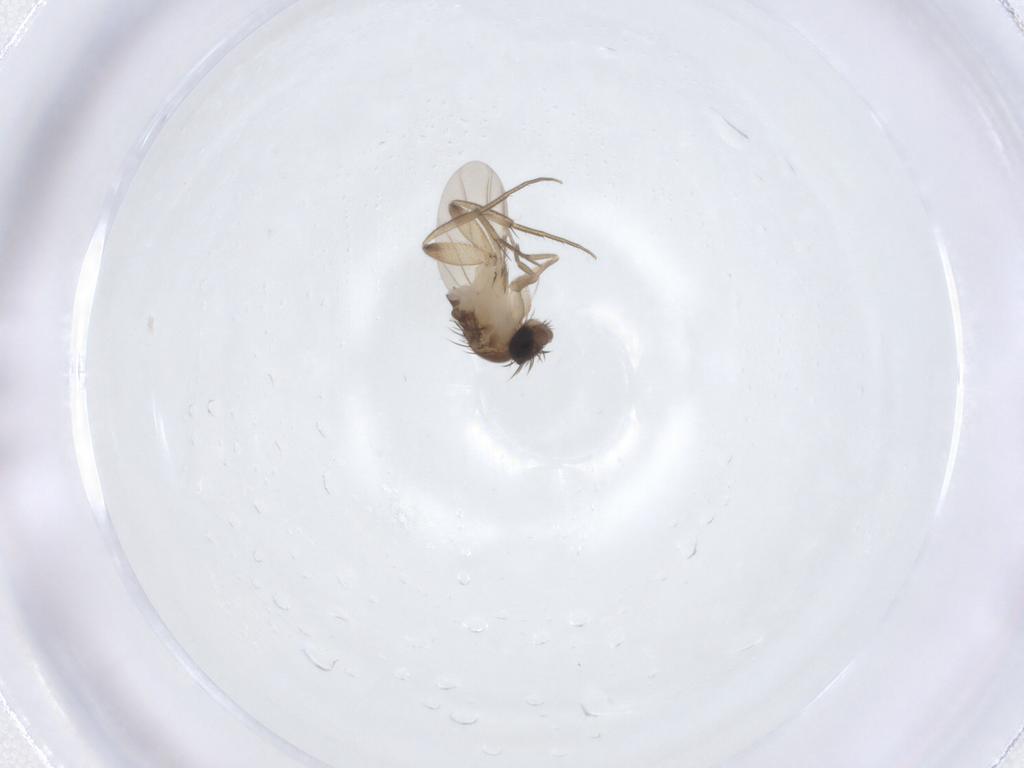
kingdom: Animalia
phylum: Arthropoda
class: Insecta
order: Diptera
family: Phoridae
